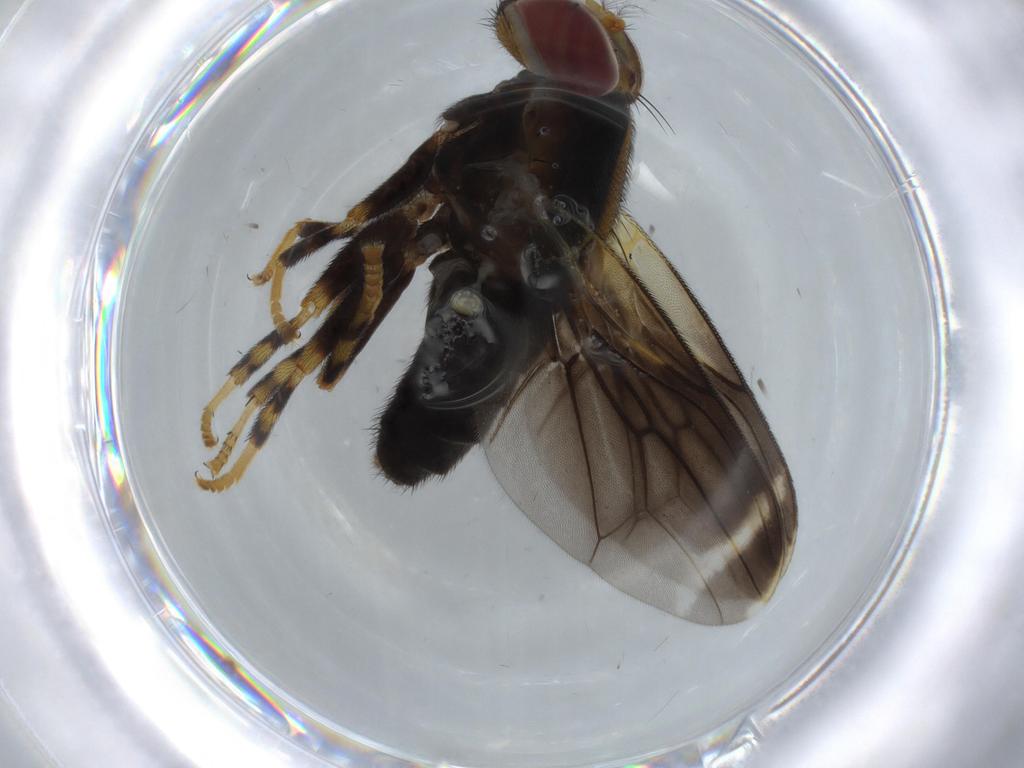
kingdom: Animalia
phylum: Arthropoda
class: Insecta
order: Diptera
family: Periscelididae
